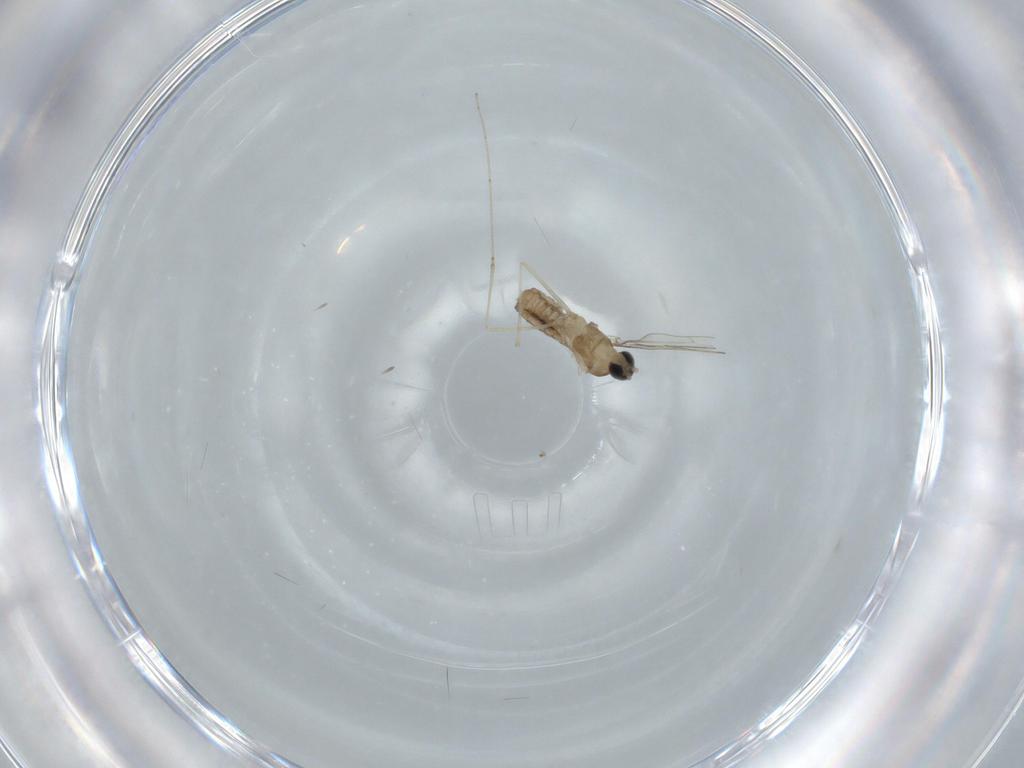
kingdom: Animalia
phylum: Arthropoda
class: Insecta
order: Diptera
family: Cecidomyiidae
